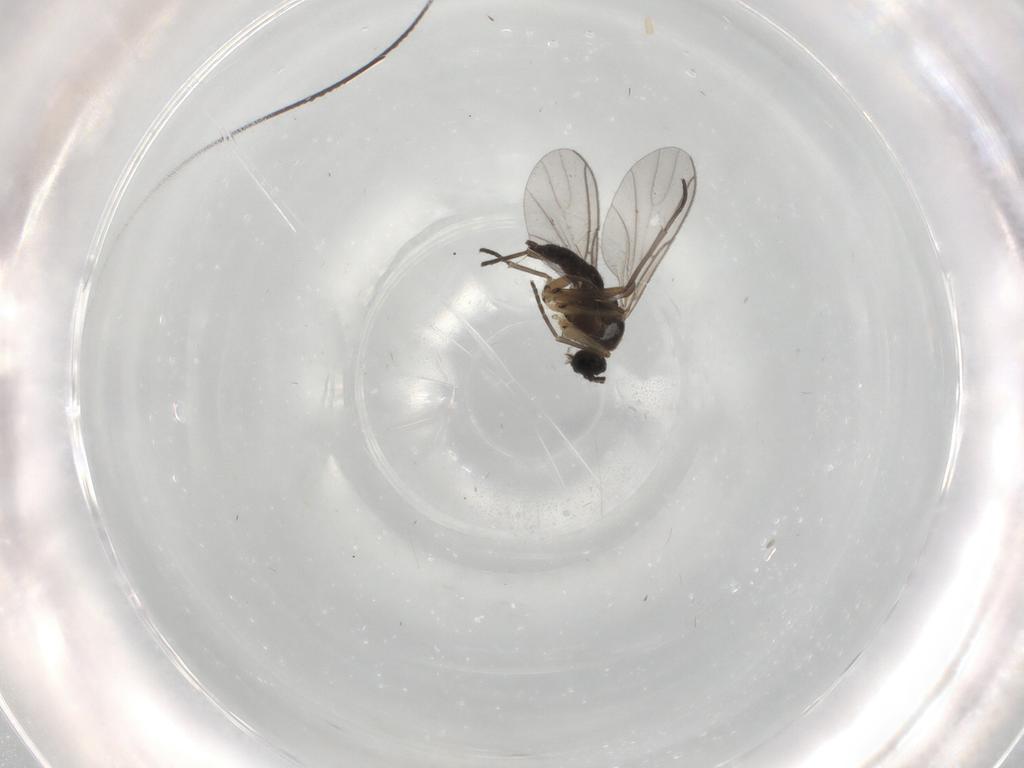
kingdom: Animalia
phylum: Arthropoda
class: Insecta
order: Diptera
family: Sciaridae
